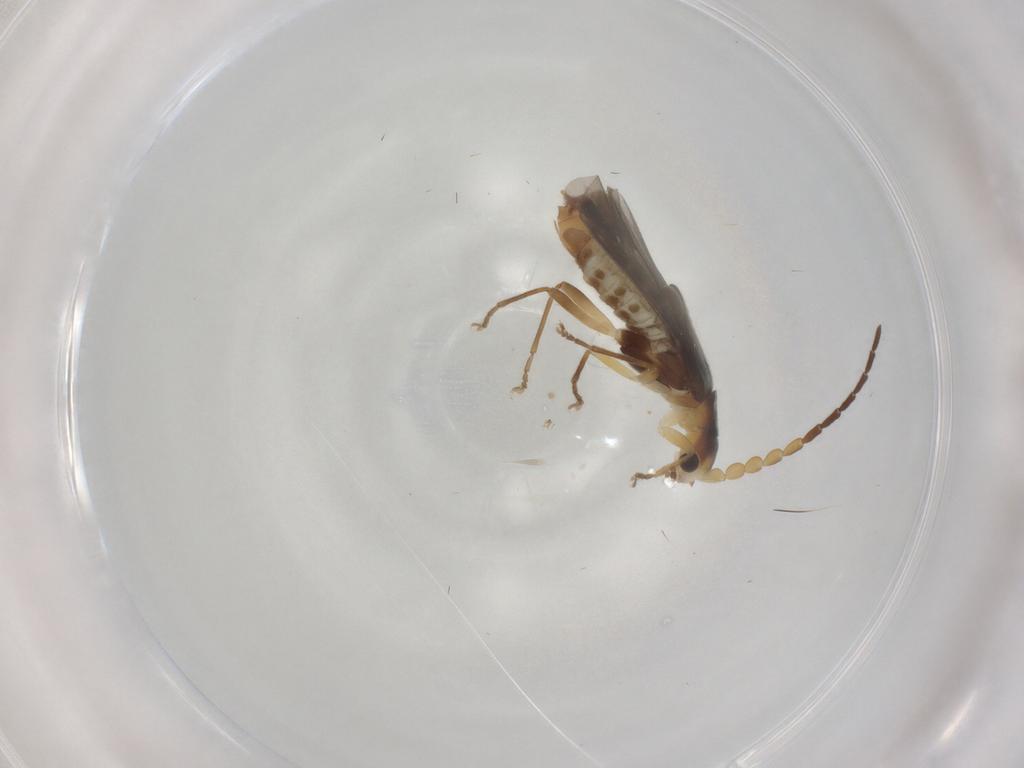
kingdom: Animalia
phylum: Arthropoda
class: Insecta
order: Coleoptera
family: Cantharidae
